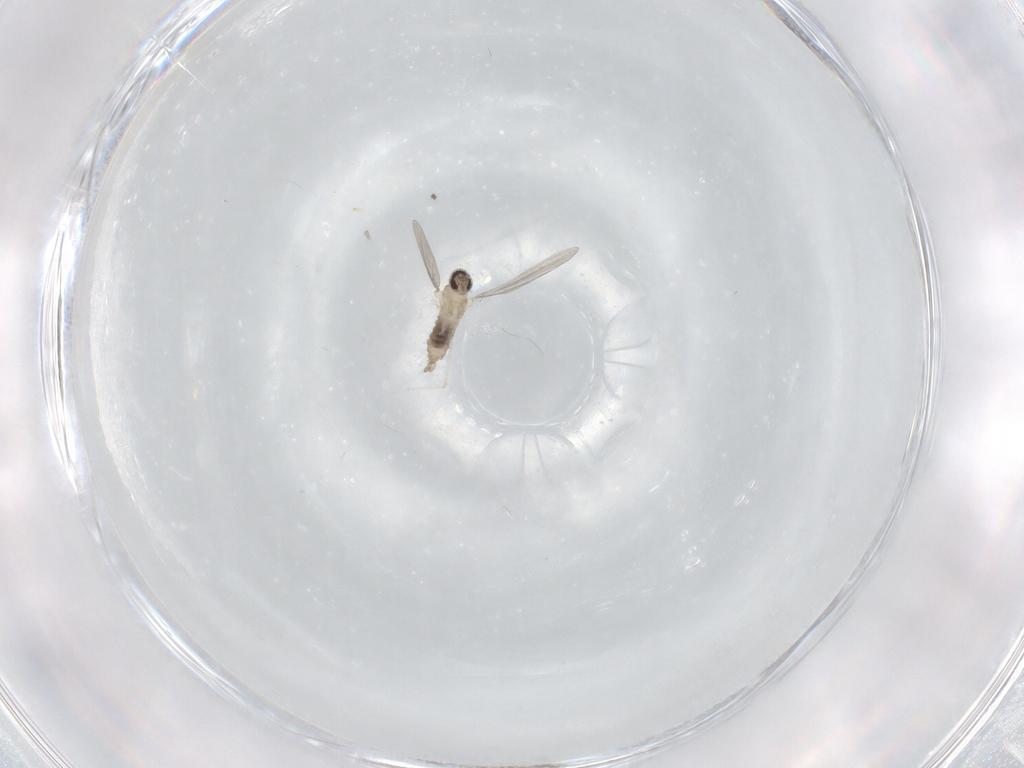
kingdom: Animalia
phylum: Arthropoda
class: Insecta
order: Diptera
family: Cecidomyiidae
